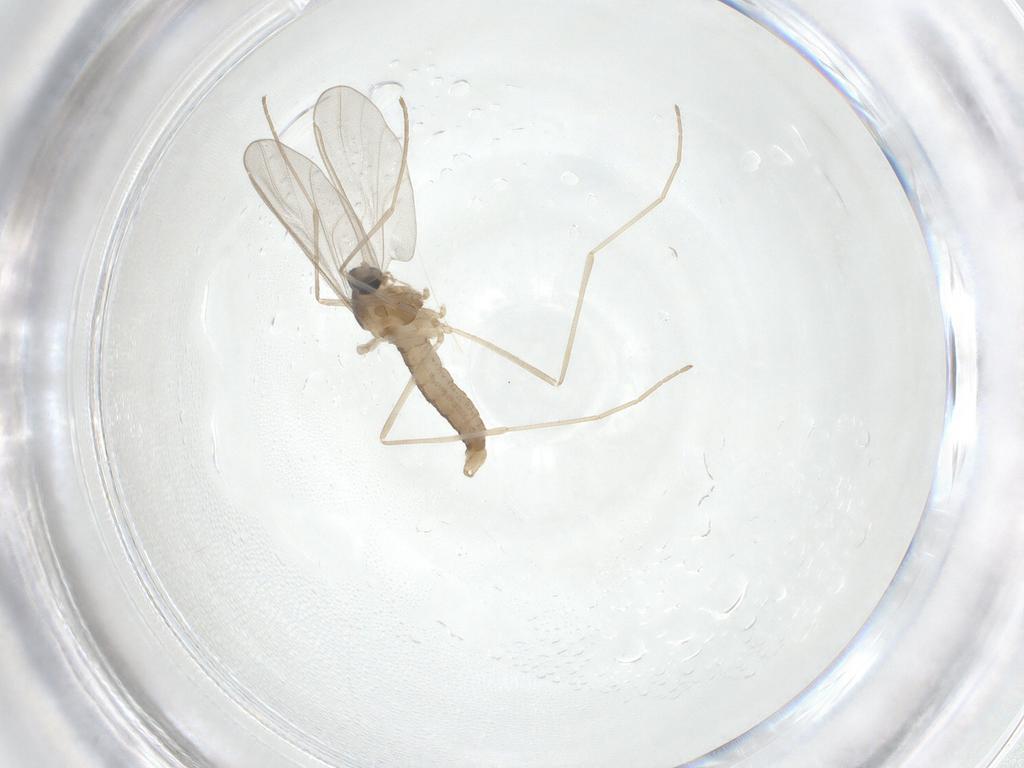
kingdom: Animalia
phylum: Arthropoda
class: Insecta
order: Diptera
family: Cecidomyiidae
